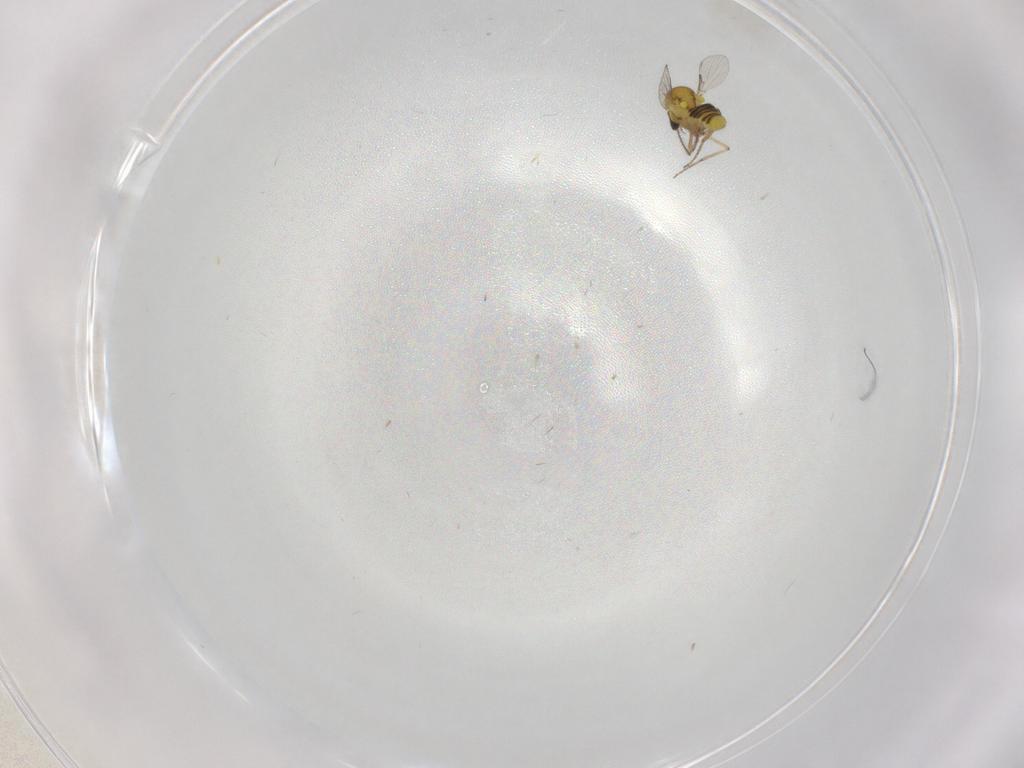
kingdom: Animalia
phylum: Arthropoda
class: Insecta
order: Diptera
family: Ceratopogonidae
